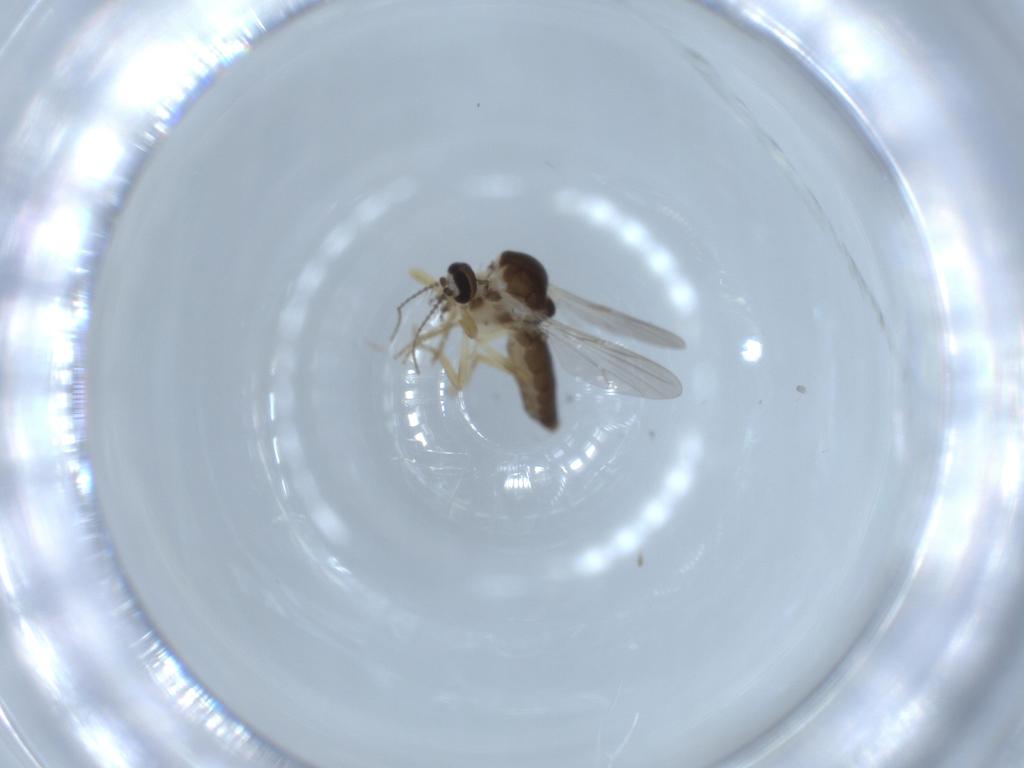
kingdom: Animalia
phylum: Arthropoda
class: Insecta
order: Diptera
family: Ceratopogonidae
